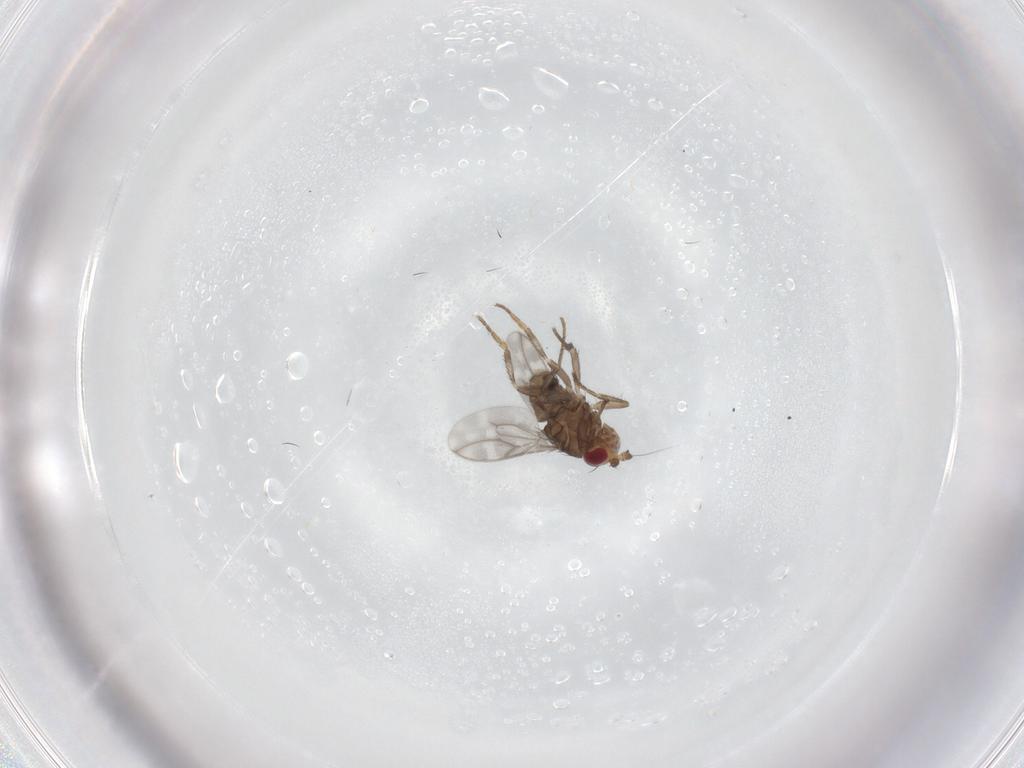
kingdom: Animalia
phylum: Arthropoda
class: Insecta
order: Diptera
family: Sphaeroceridae
